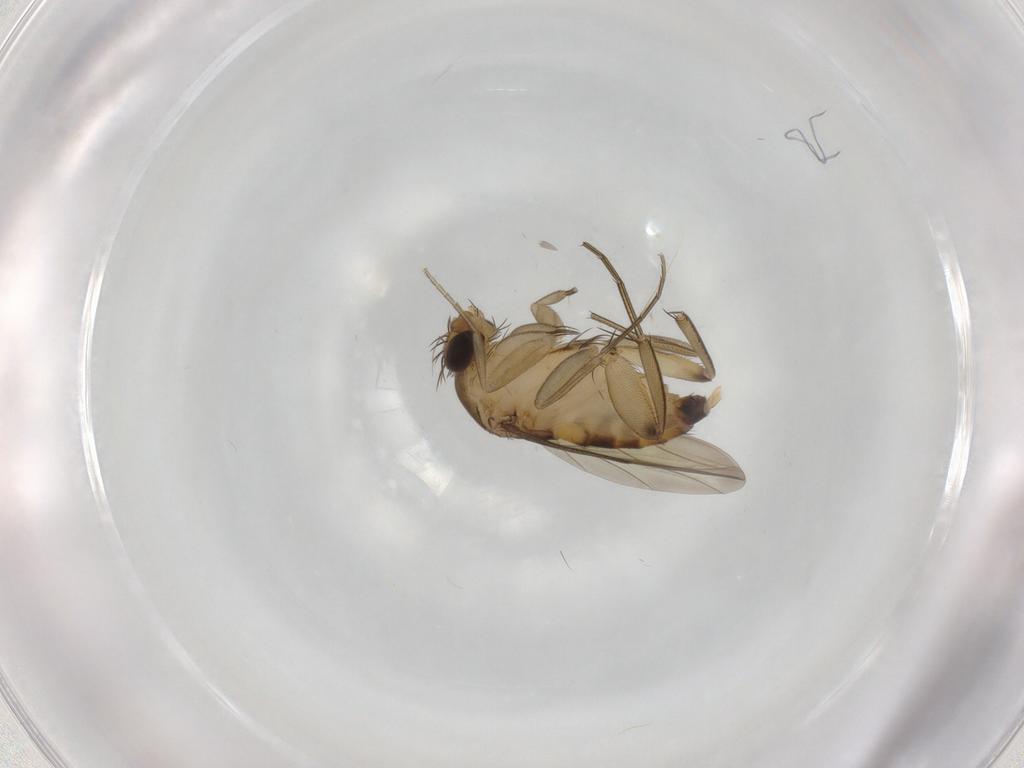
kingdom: Animalia
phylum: Arthropoda
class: Insecta
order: Diptera
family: Phoridae
